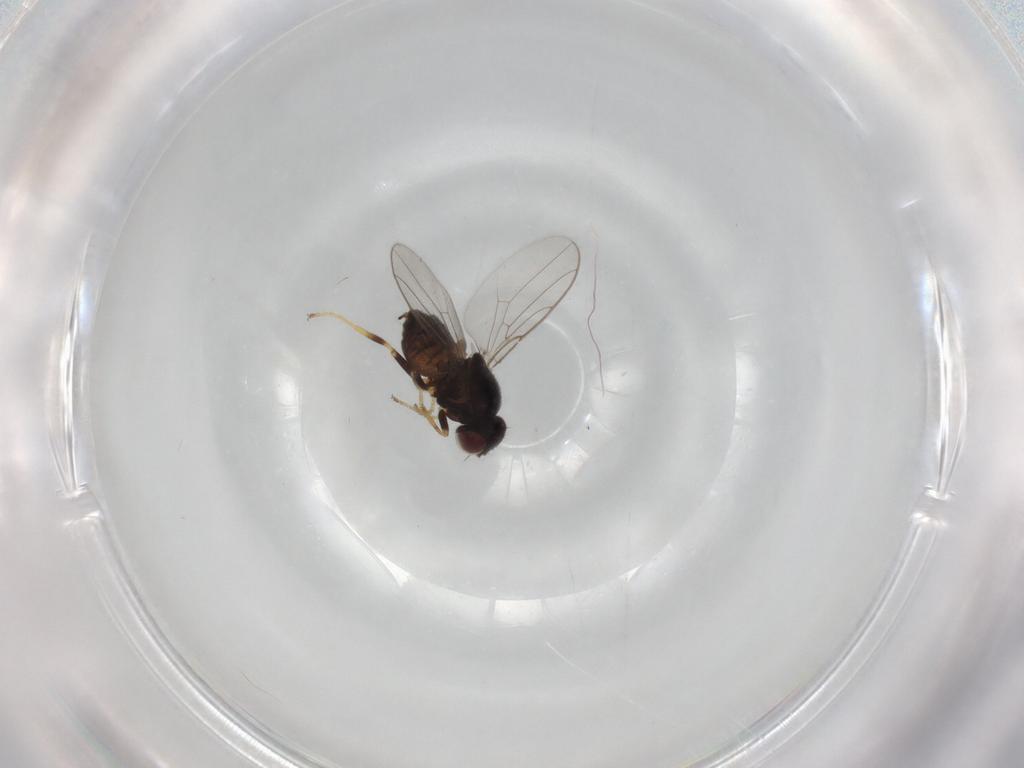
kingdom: Animalia
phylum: Arthropoda
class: Insecta
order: Diptera
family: Chloropidae
